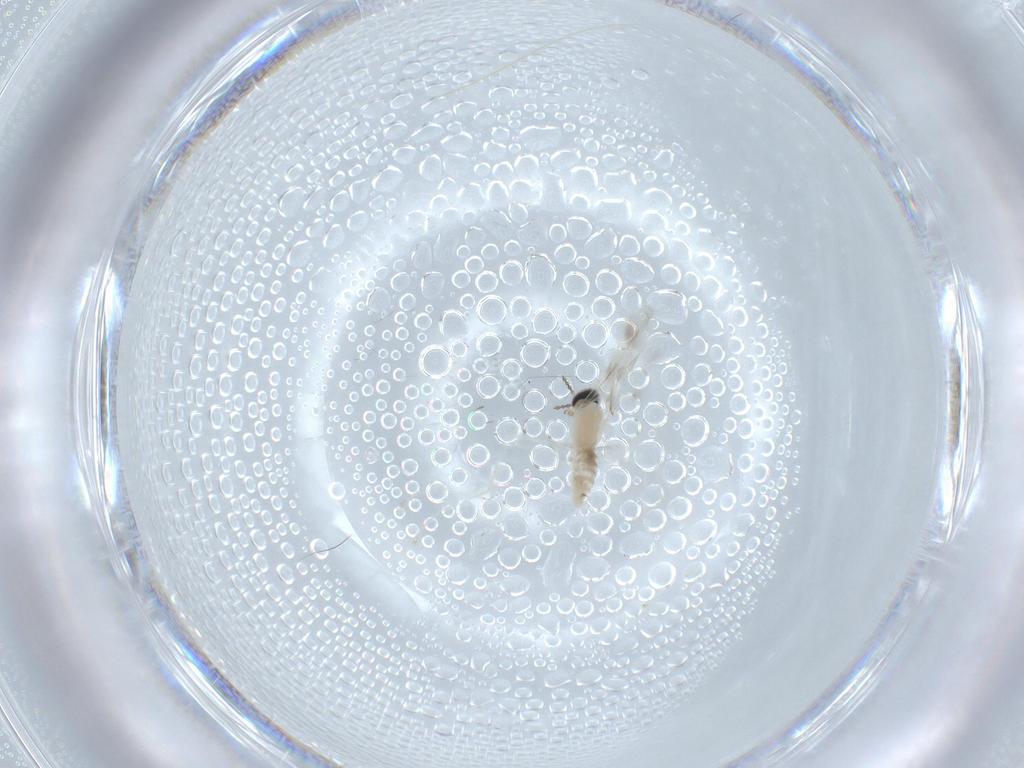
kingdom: Animalia
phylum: Arthropoda
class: Insecta
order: Diptera
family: Cecidomyiidae
